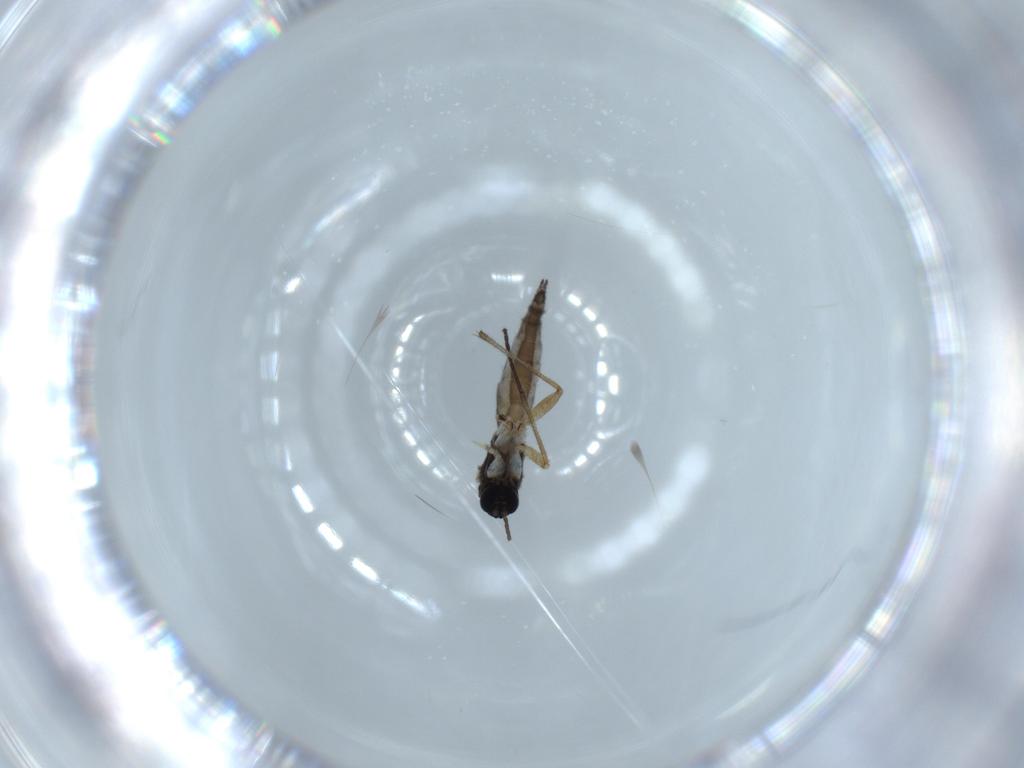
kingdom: Animalia
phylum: Arthropoda
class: Insecta
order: Diptera
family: Sciaridae
